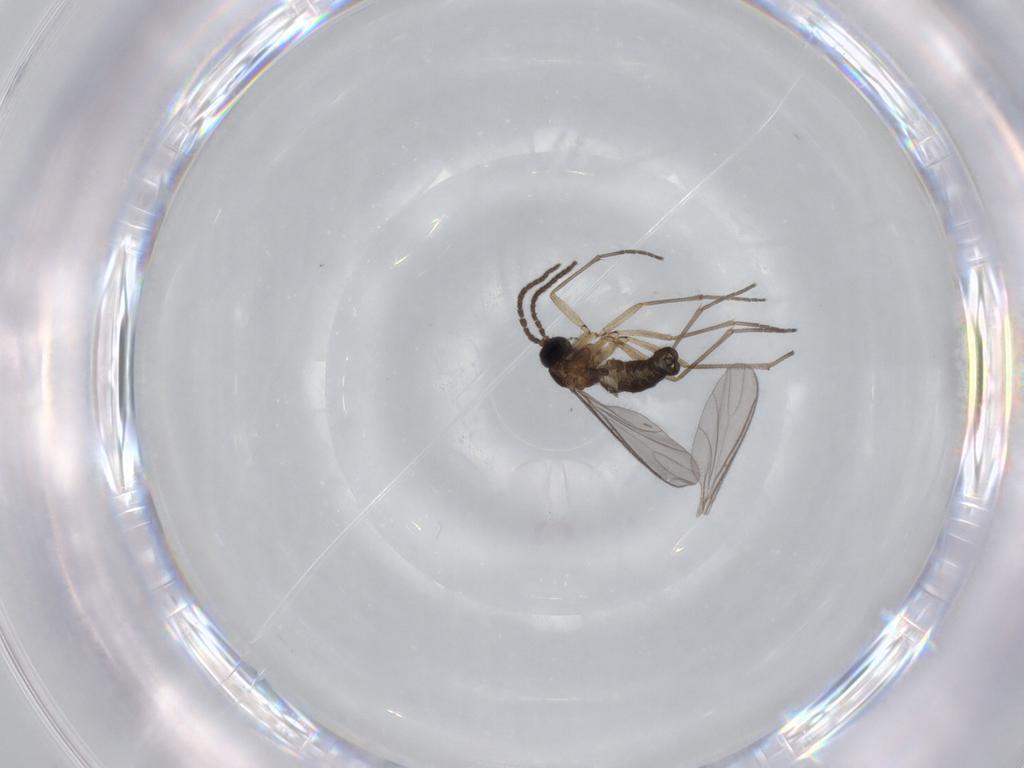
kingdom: Animalia
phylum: Arthropoda
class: Insecta
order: Diptera
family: Sciaridae
